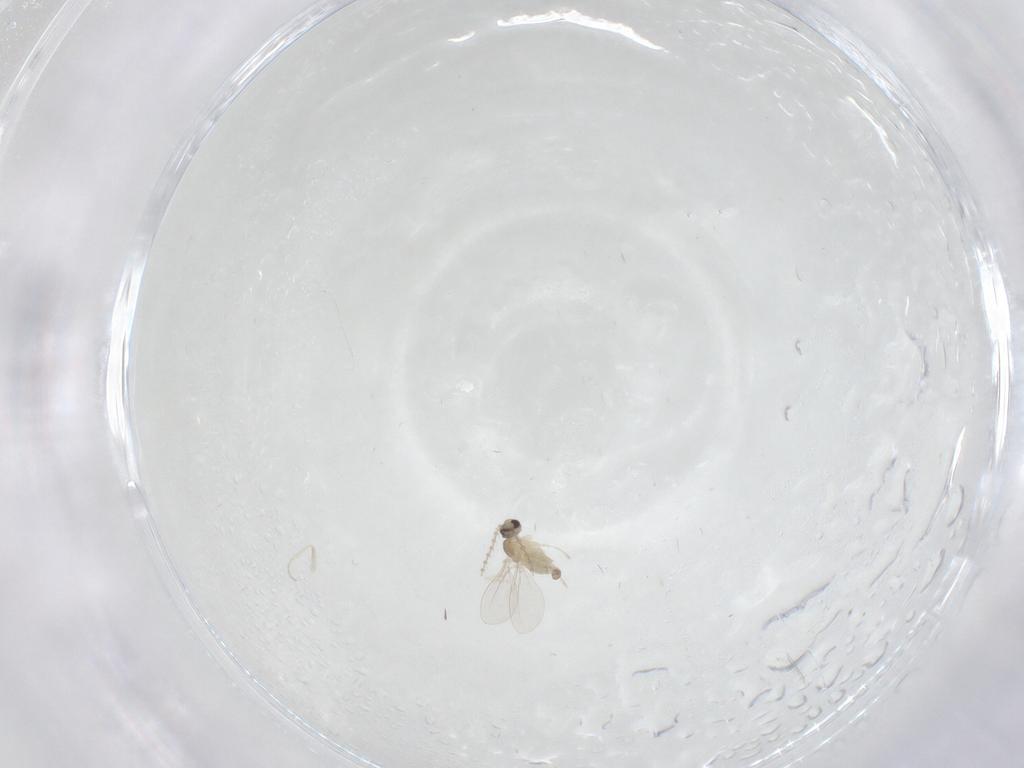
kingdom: Animalia
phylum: Arthropoda
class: Insecta
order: Diptera
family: Cecidomyiidae
